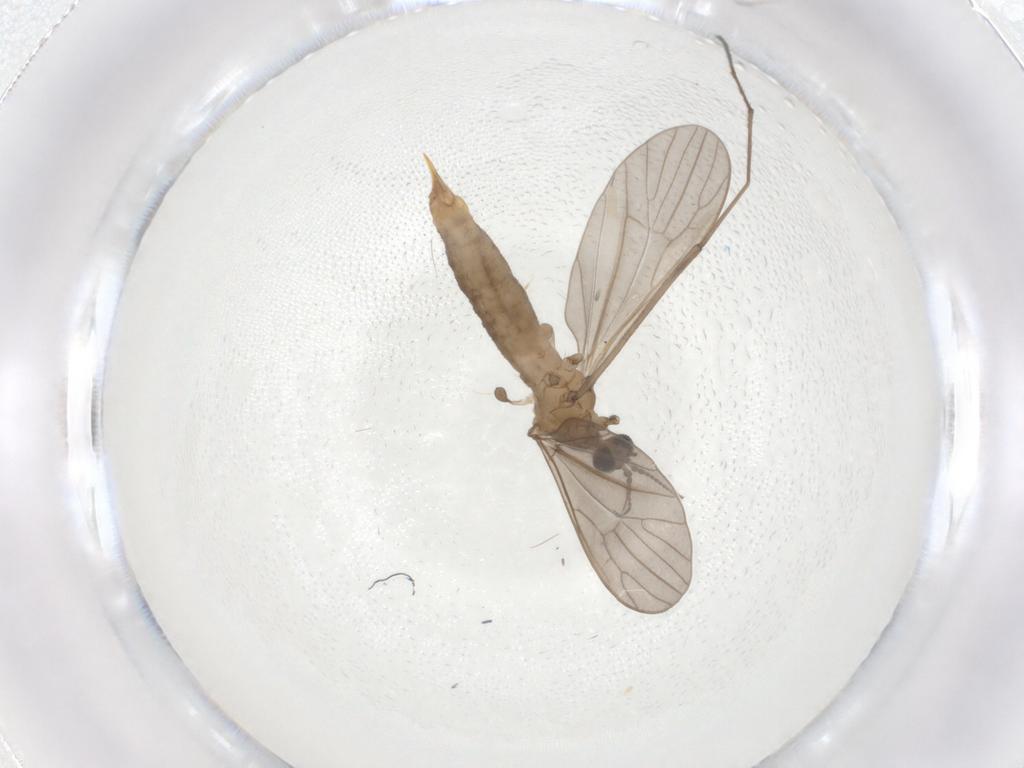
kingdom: Animalia
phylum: Arthropoda
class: Insecta
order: Diptera
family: Limoniidae
